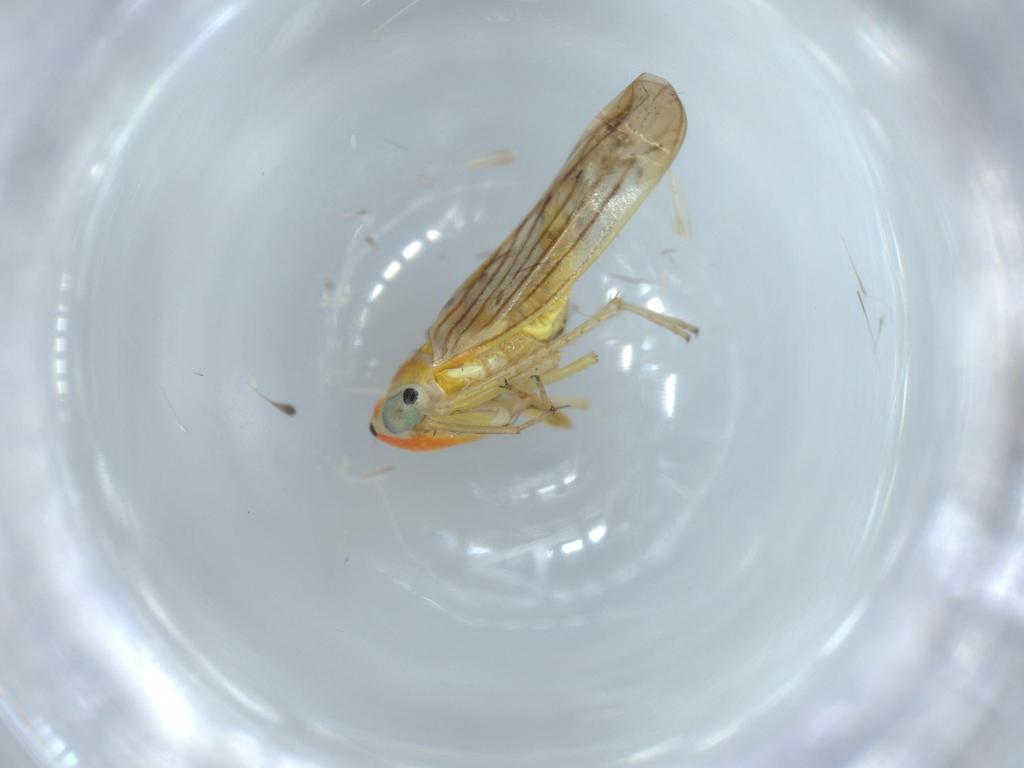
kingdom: Animalia
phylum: Arthropoda
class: Insecta
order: Hemiptera
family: Cicadellidae
